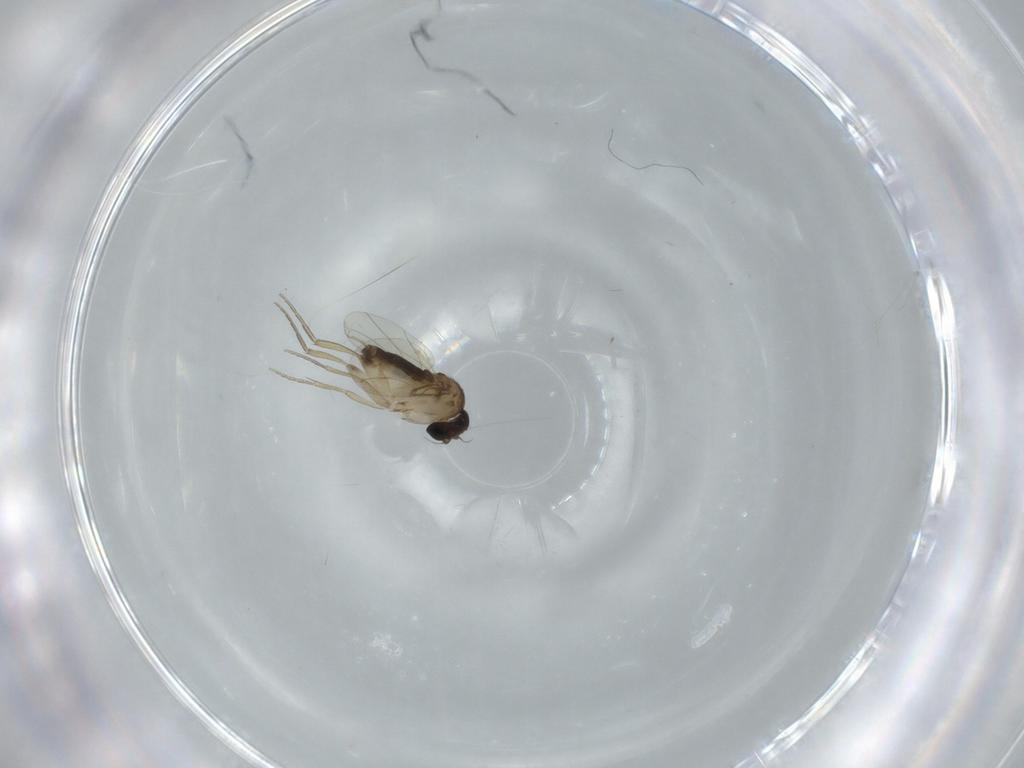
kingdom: Animalia
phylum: Arthropoda
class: Insecta
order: Diptera
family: Phoridae
